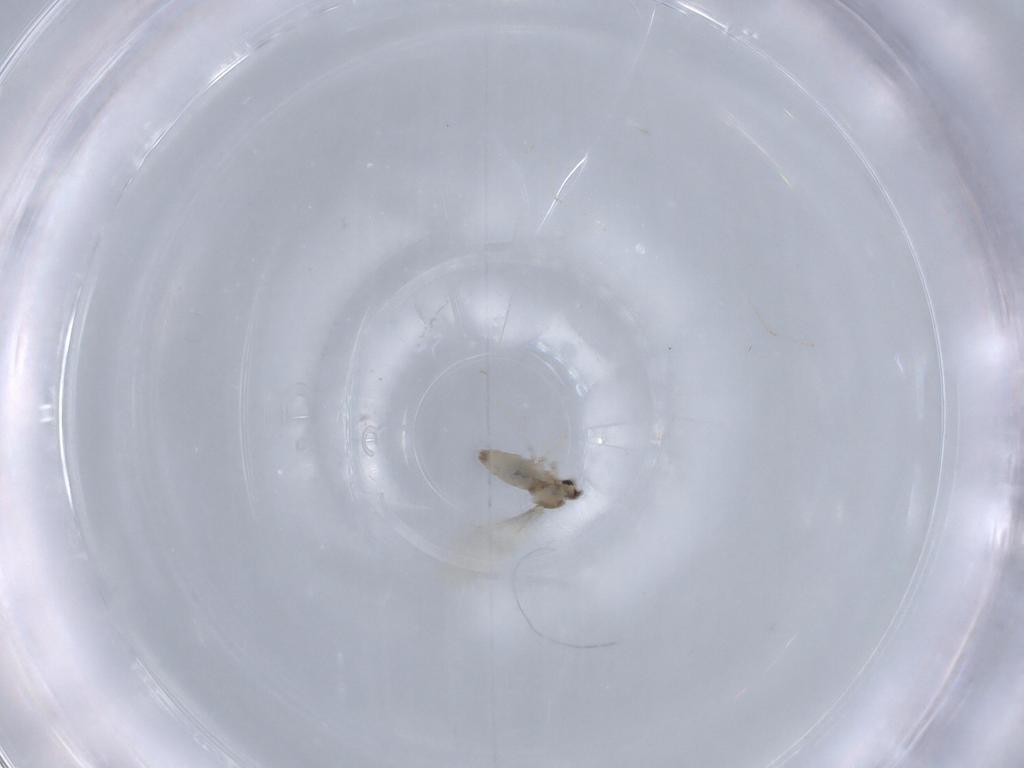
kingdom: Animalia
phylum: Arthropoda
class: Insecta
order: Diptera
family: Cecidomyiidae
